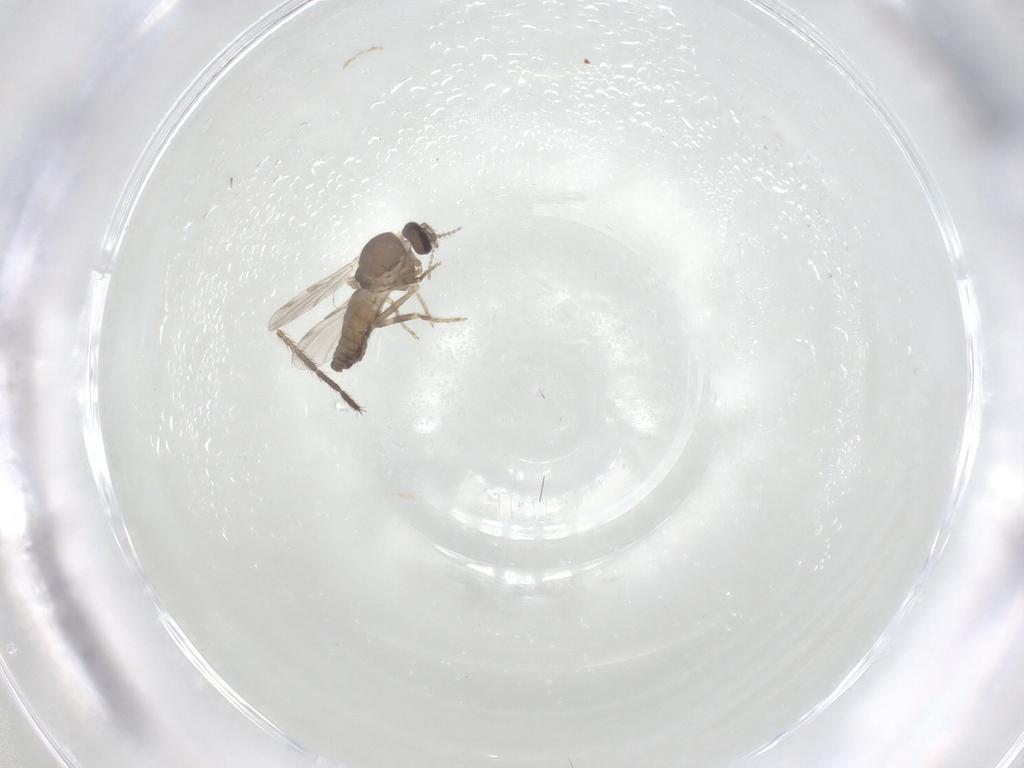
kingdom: Animalia
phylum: Arthropoda
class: Insecta
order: Diptera
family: Ceratopogonidae
